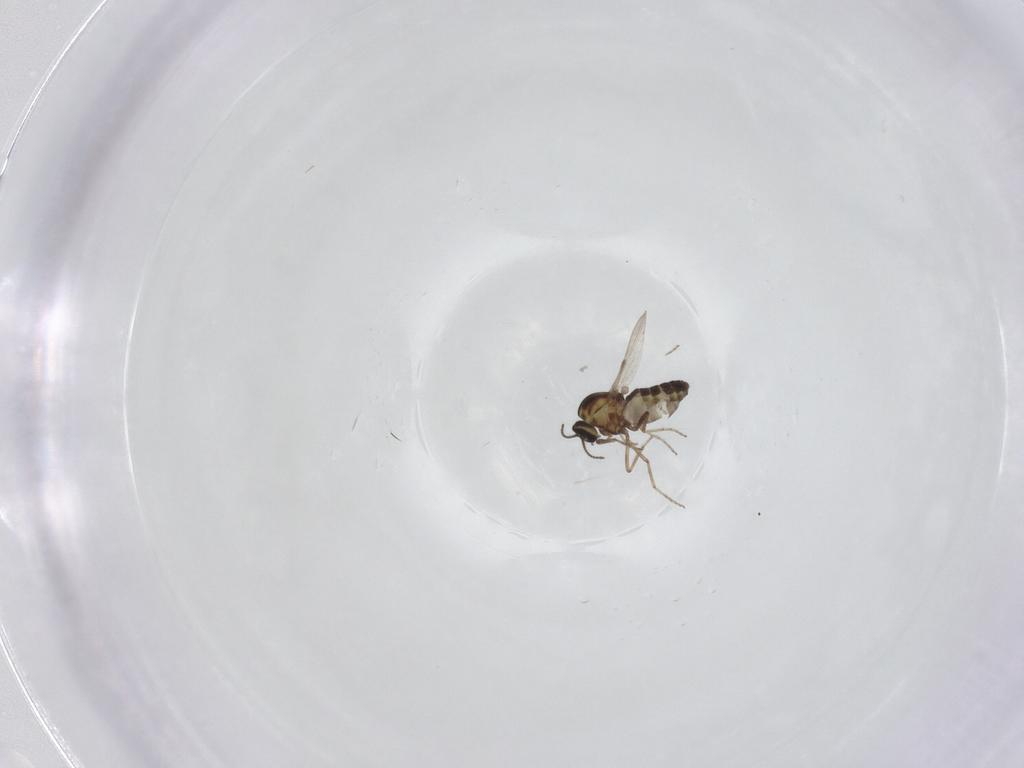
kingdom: Animalia
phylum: Arthropoda
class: Insecta
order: Diptera
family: Ceratopogonidae
